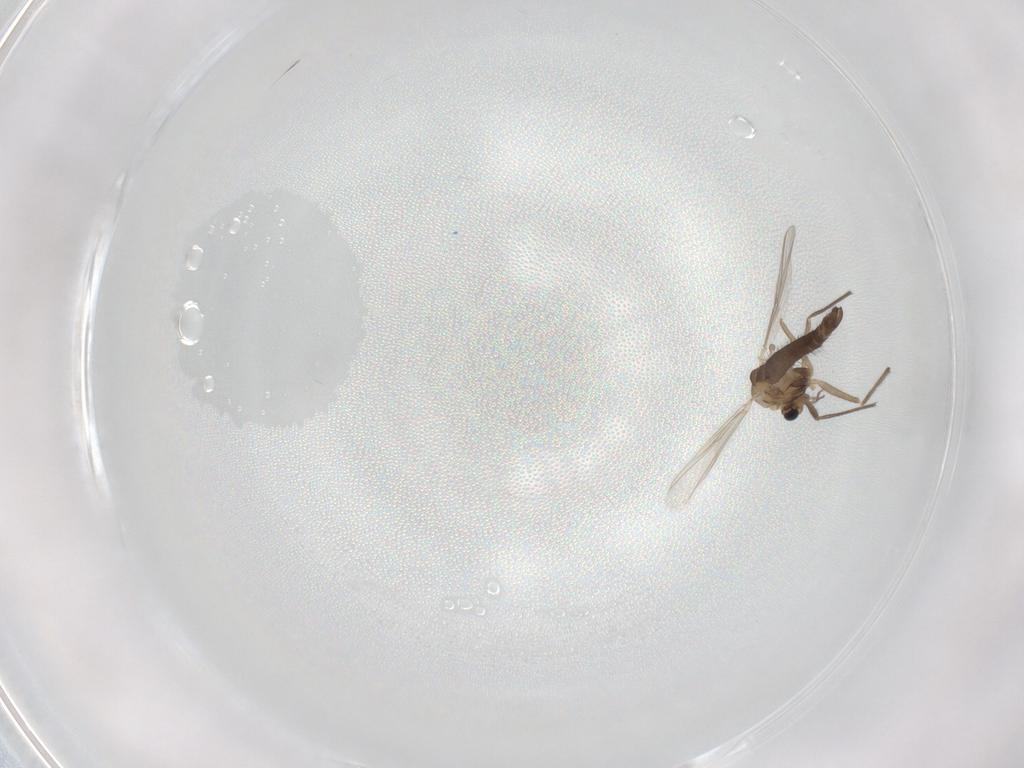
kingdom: Animalia
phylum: Arthropoda
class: Insecta
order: Diptera
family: Chironomidae
